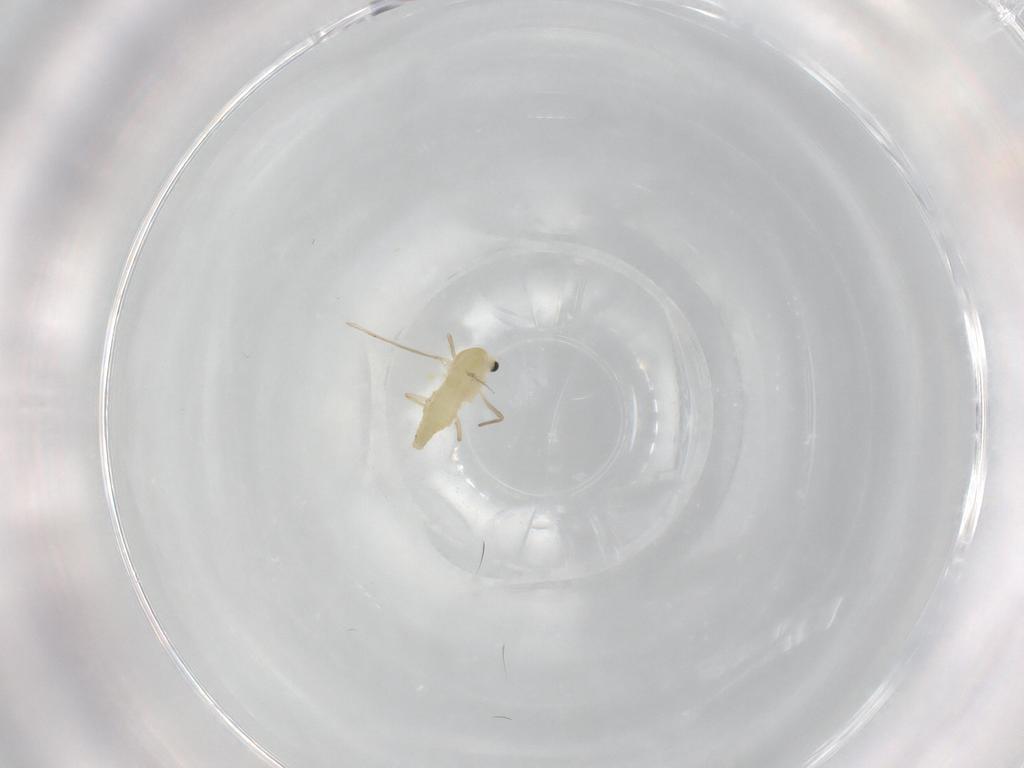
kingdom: Animalia
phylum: Arthropoda
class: Insecta
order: Diptera
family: Chironomidae
